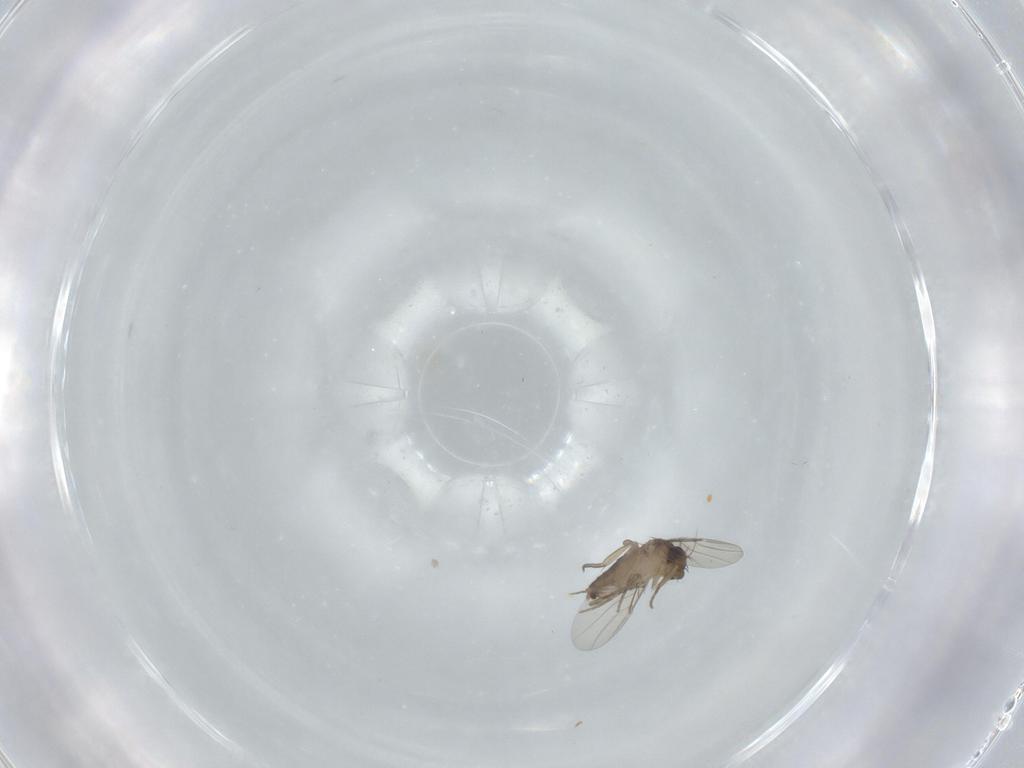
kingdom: Animalia
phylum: Arthropoda
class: Insecta
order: Diptera
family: Phoridae
